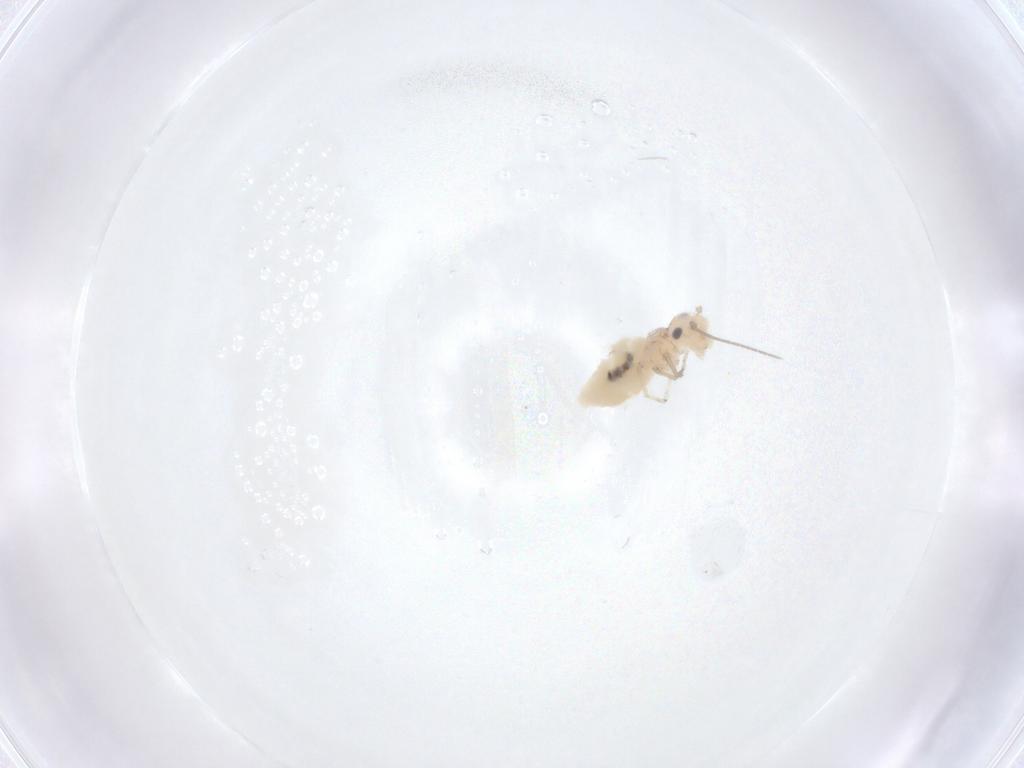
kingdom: Animalia
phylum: Arthropoda
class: Insecta
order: Psocodea
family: Caeciliusidae
